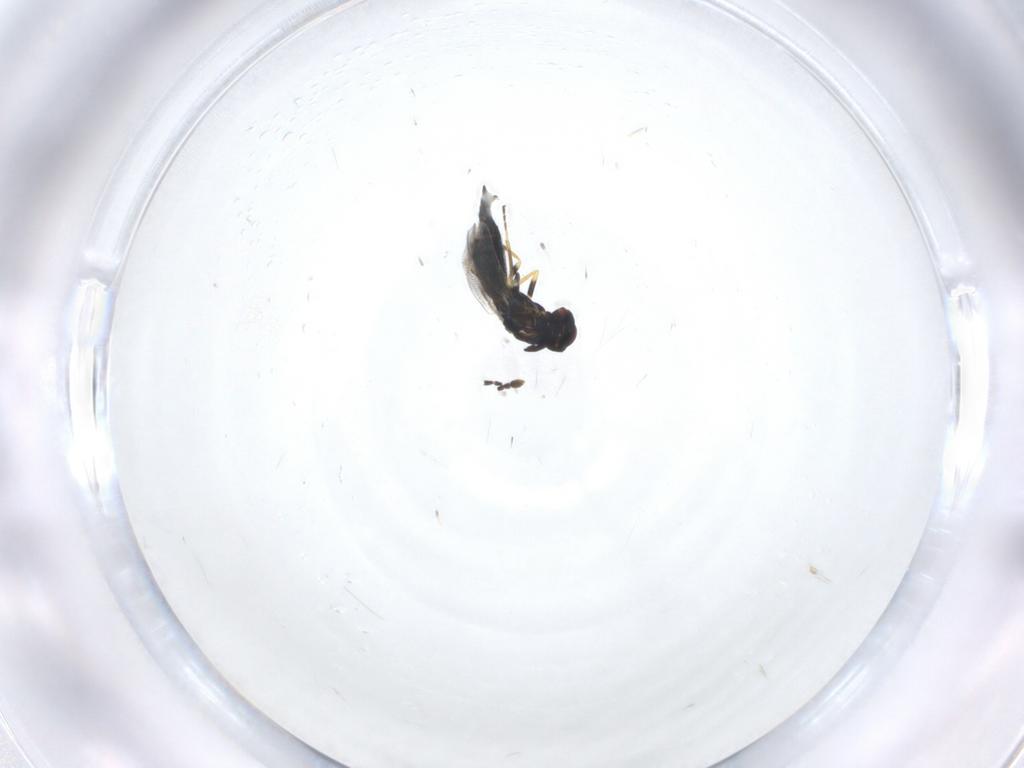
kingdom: Animalia
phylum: Arthropoda
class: Insecta
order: Hymenoptera
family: Eulophidae
